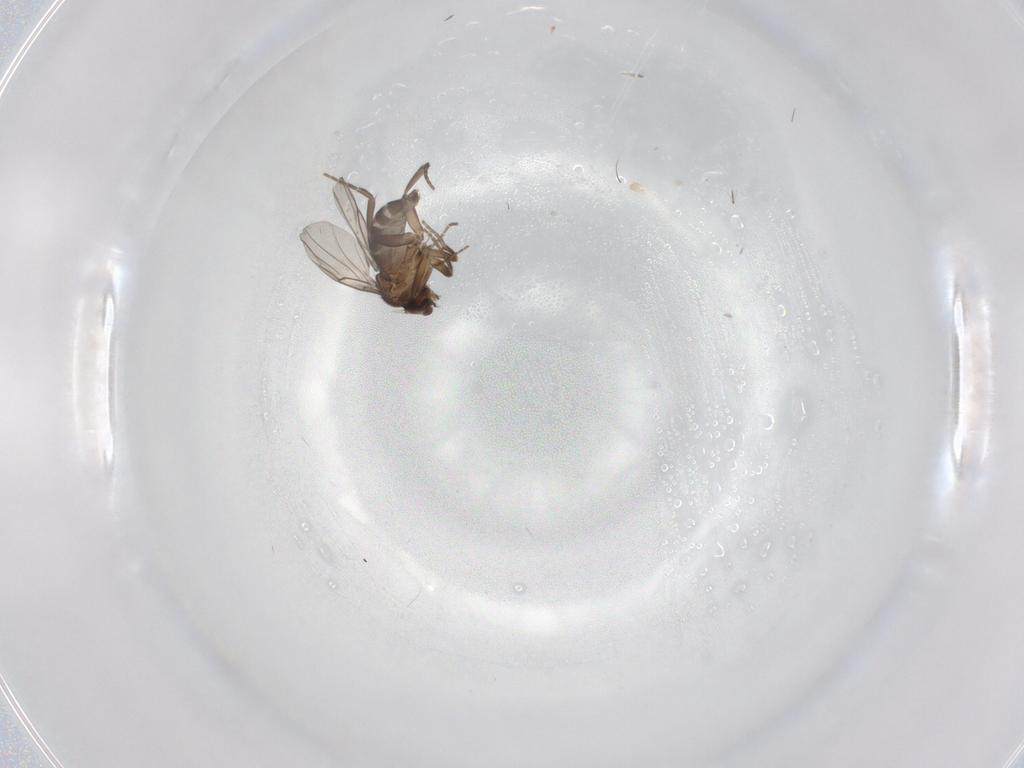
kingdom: Animalia
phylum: Arthropoda
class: Insecta
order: Diptera
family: Chironomidae
